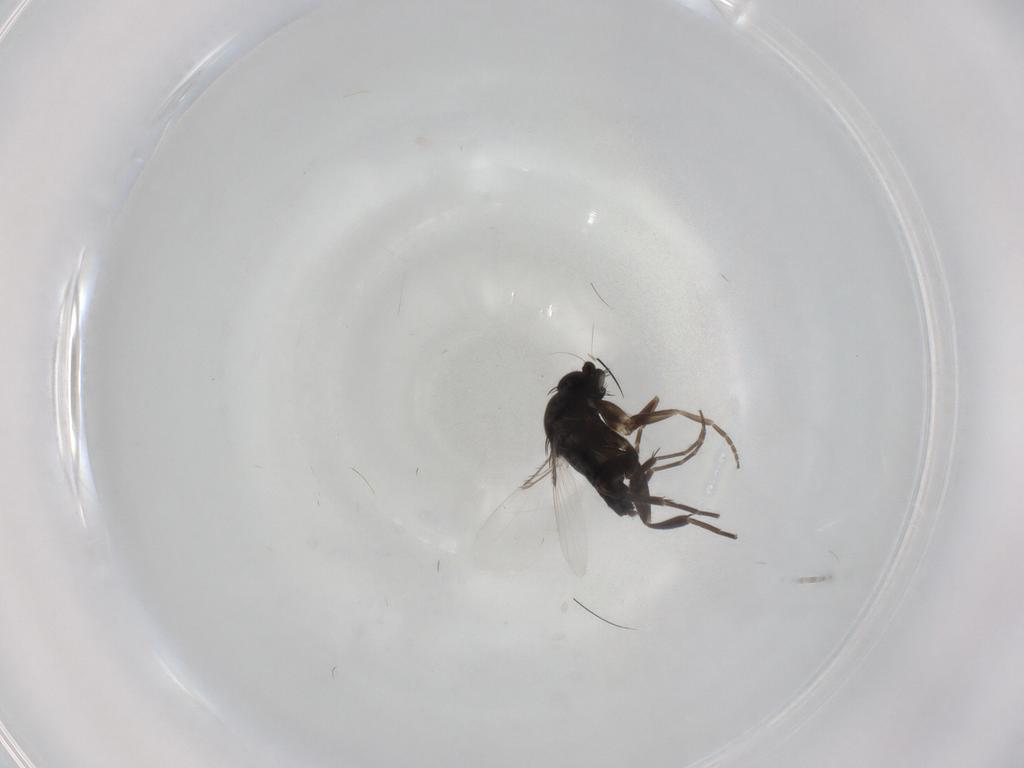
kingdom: Animalia
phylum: Arthropoda
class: Insecta
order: Diptera
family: Phoridae
